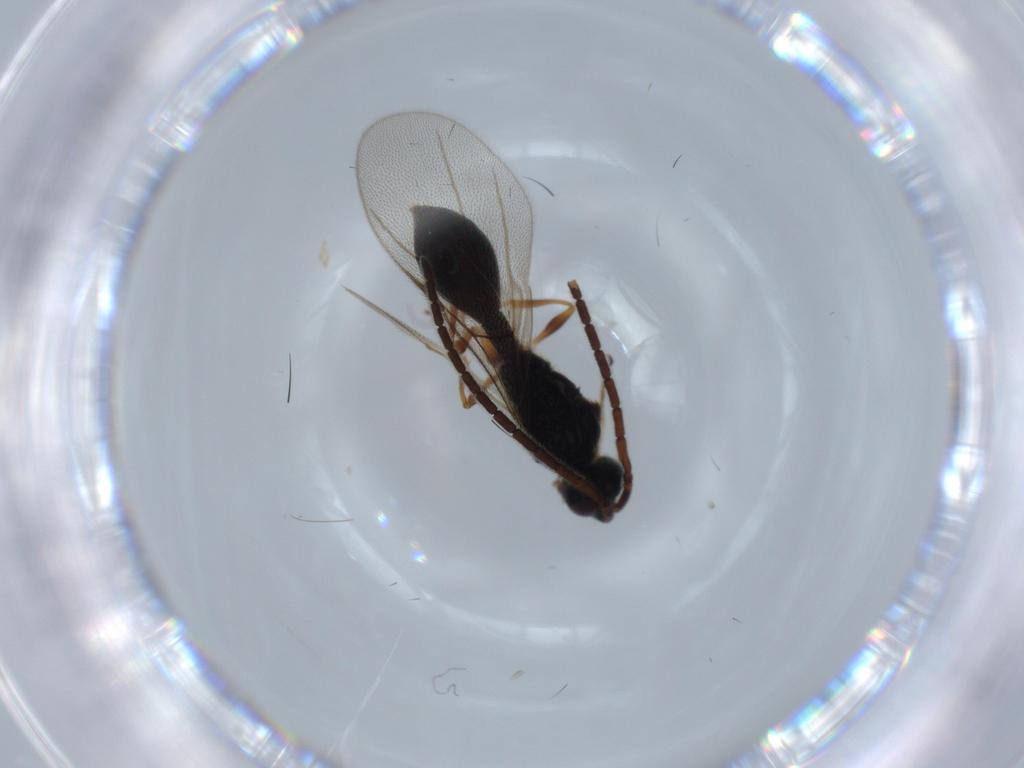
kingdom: Animalia
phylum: Arthropoda
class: Insecta
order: Hymenoptera
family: Diapriidae
